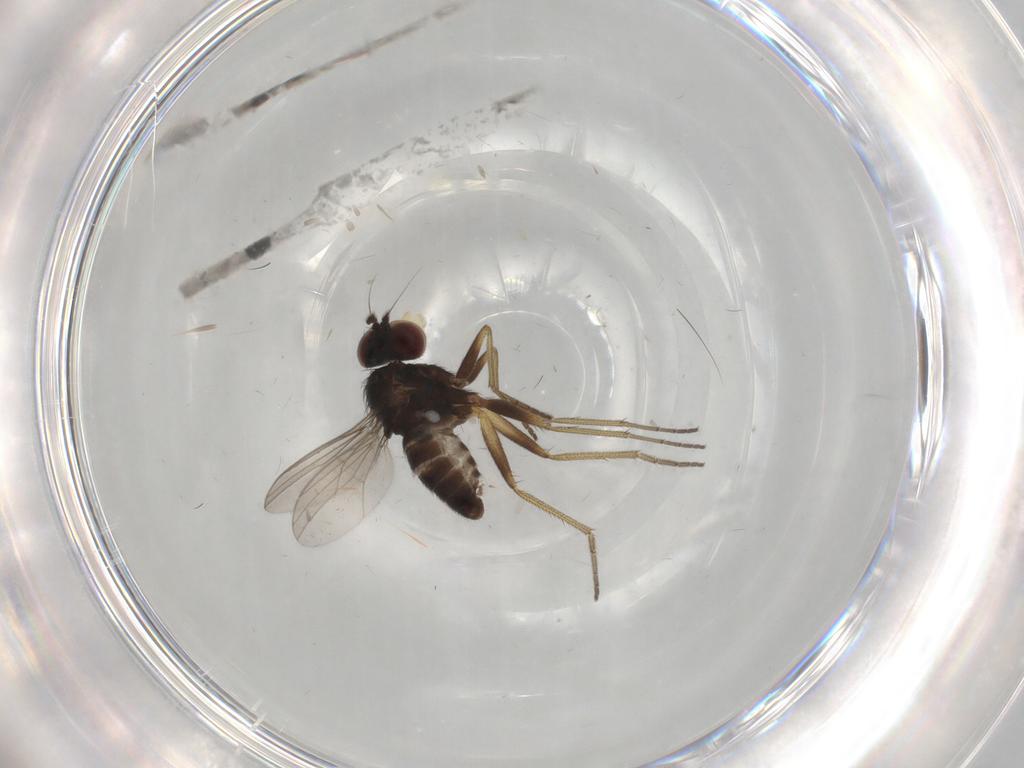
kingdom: Animalia
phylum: Arthropoda
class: Insecta
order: Diptera
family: Dolichopodidae
